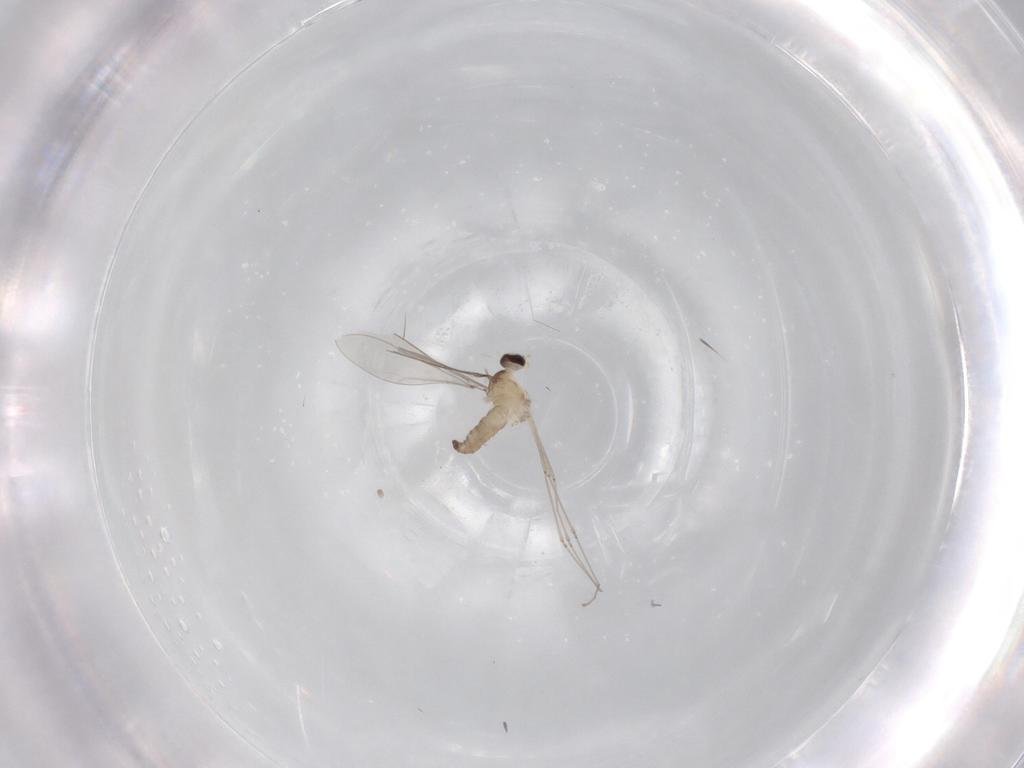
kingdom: Animalia
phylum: Arthropoda
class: Insecta
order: Diptera
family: Cecidomyiidae
